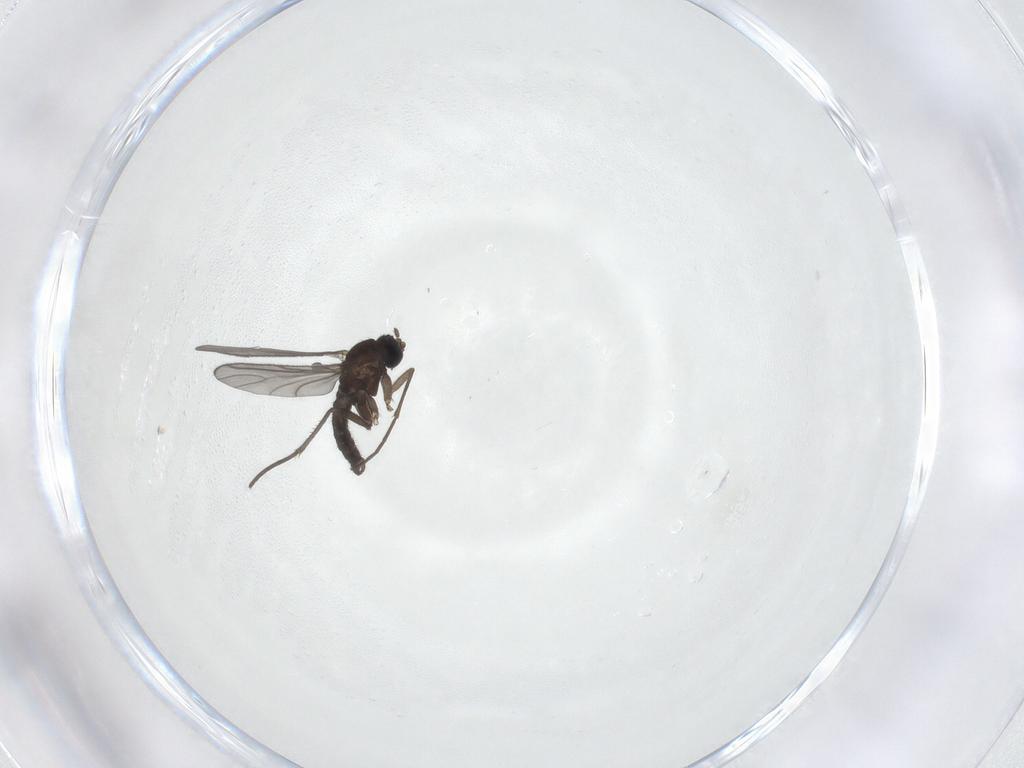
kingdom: Animalia
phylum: Arthropoda
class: Insecta
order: Diptera
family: Sciaridae
